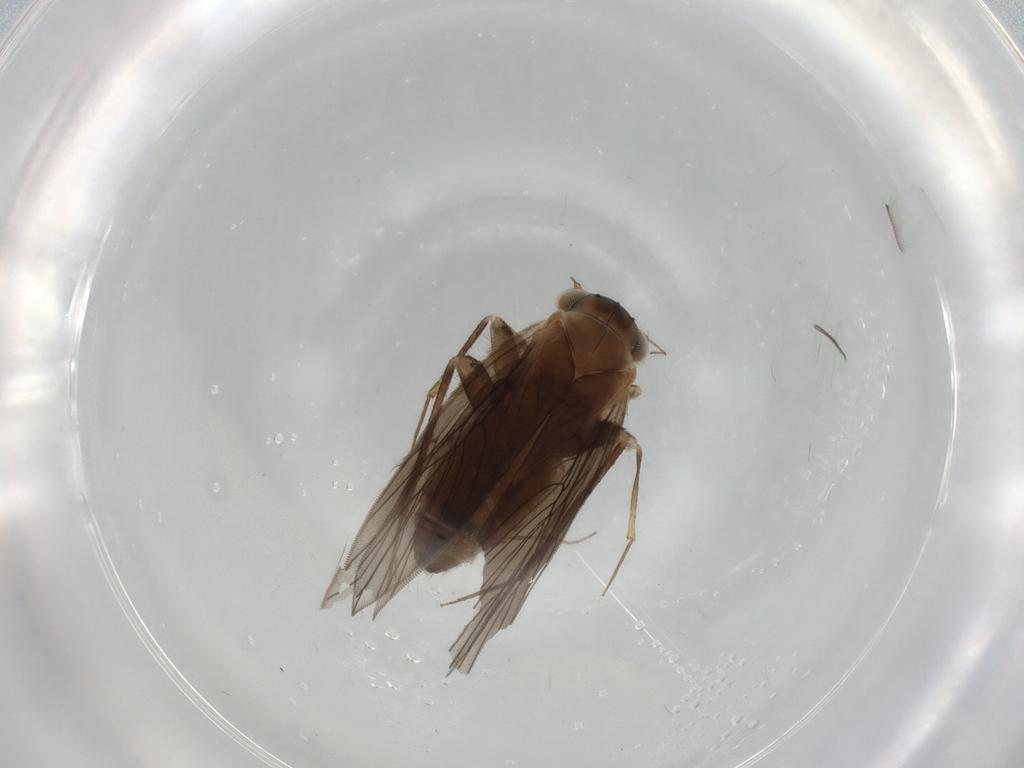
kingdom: Animalia
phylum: Arthropoda
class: Insecta
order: Psocodea
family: Lepidopsocidae
